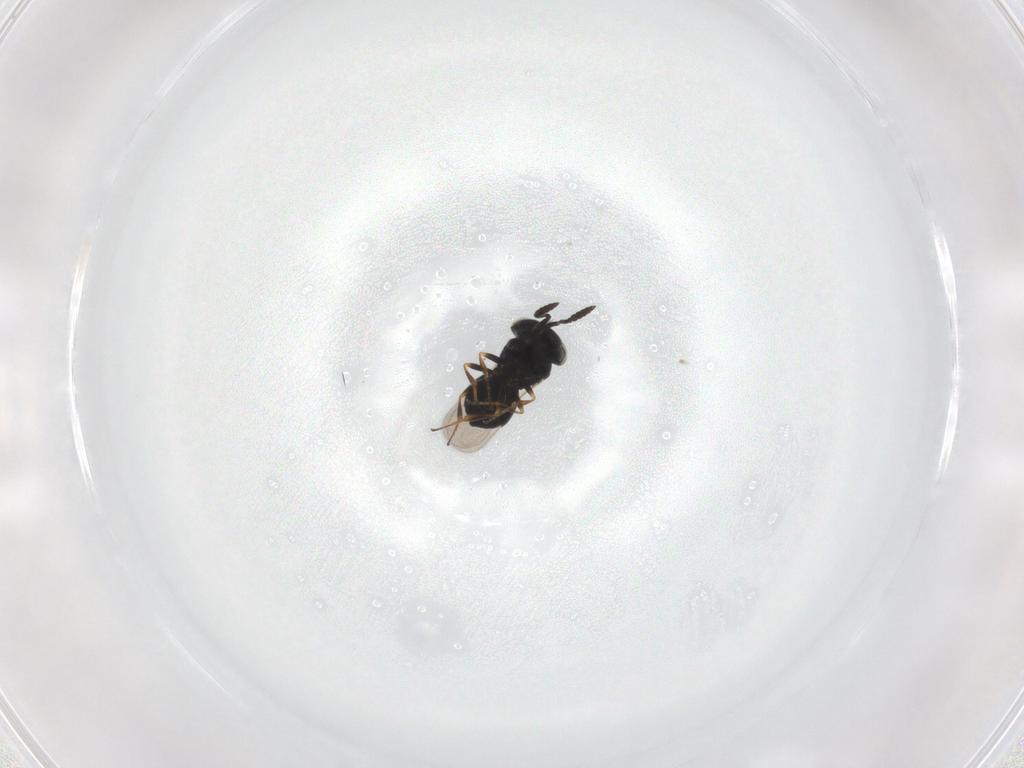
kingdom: Animalia
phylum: Arthropoda
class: Insecta
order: Hymenoptera
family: Scelionidae
